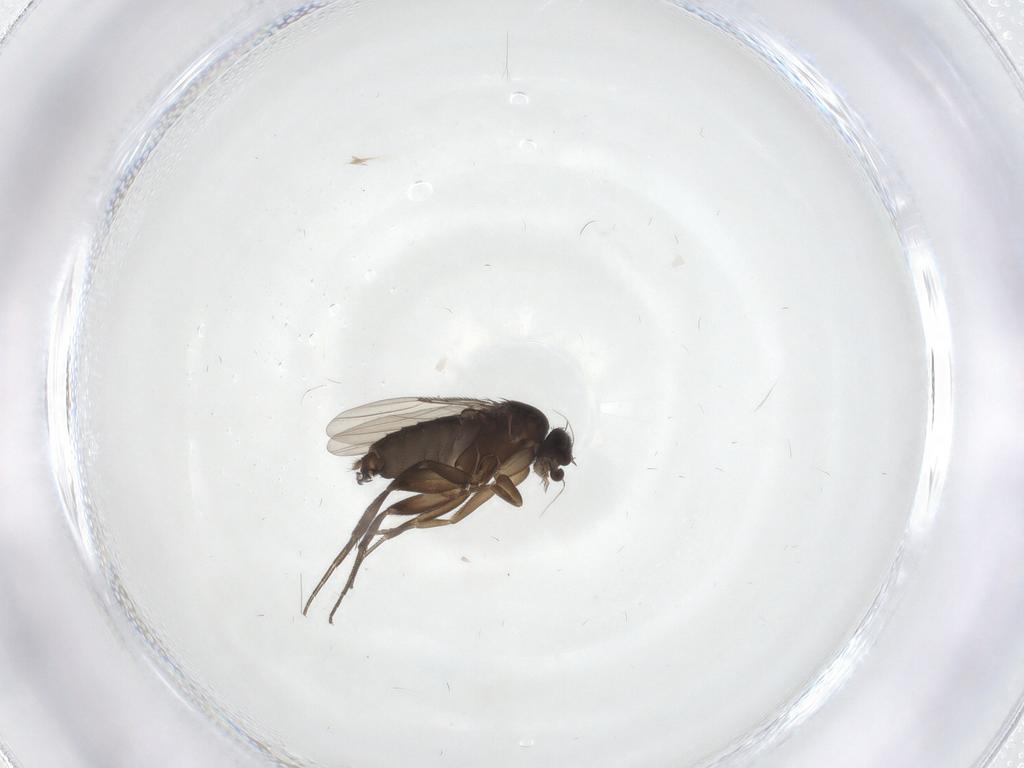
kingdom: Animalia
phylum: Arthropoda
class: Insecta
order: Diptera
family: Phoridae
